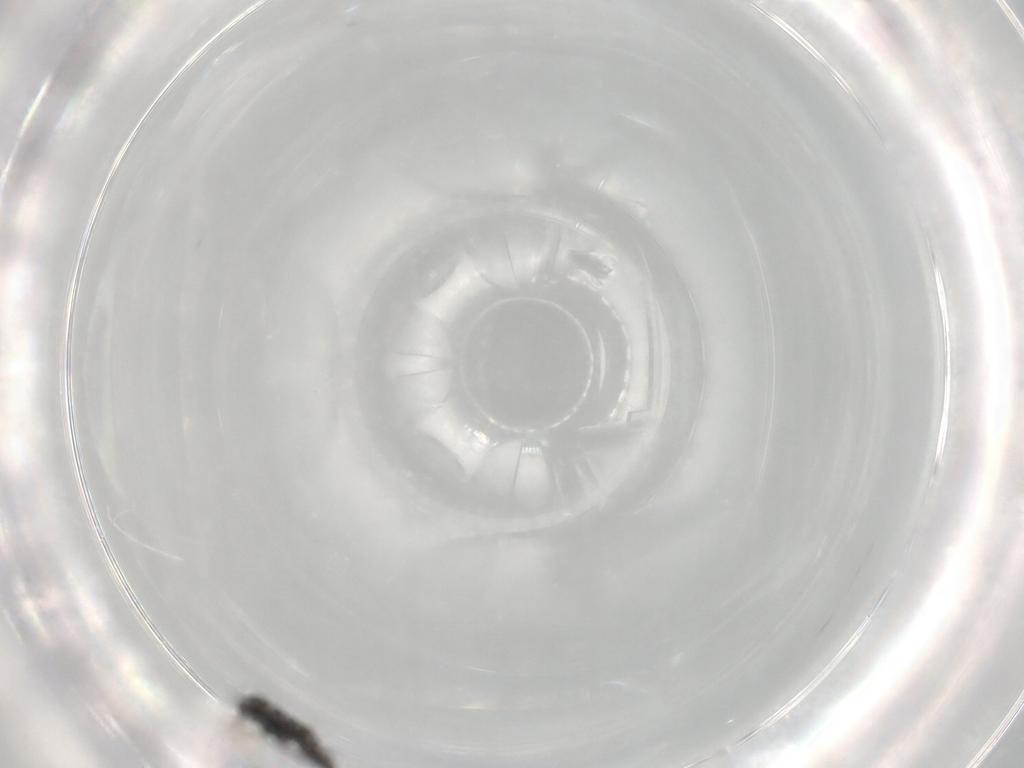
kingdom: Animalia
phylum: Arthropoda
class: Insecta
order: Hymenoptera
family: Scelionidae
